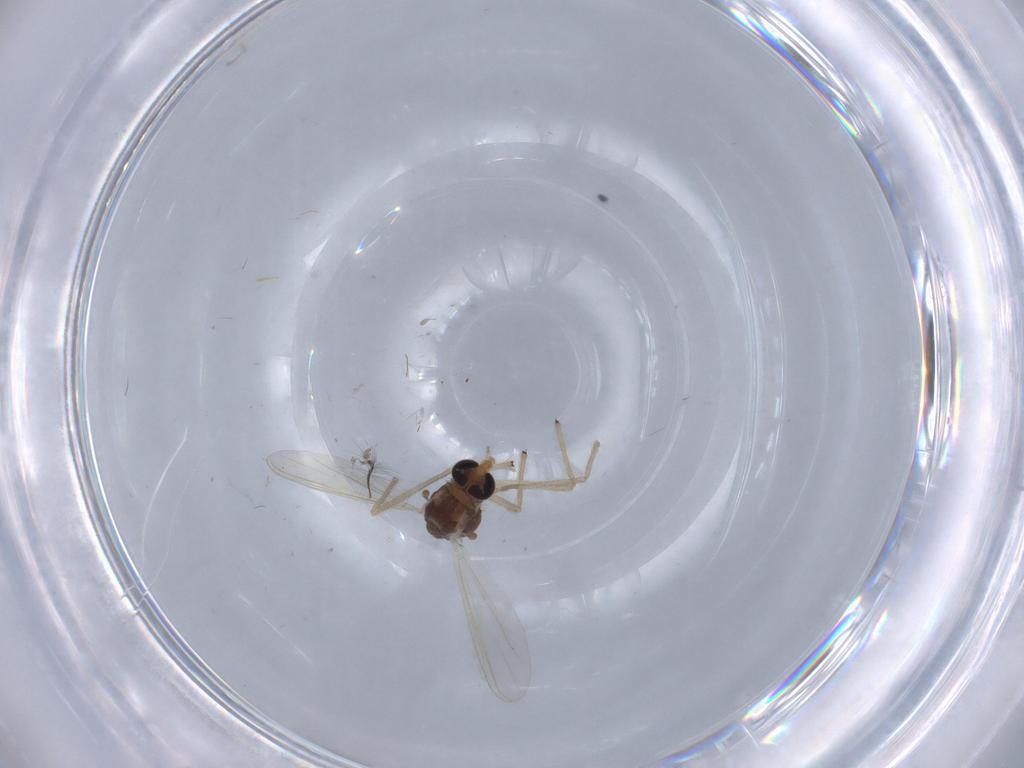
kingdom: Animalia
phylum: Arthropoda
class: Insecta
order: Diptera
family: Chironomidae
